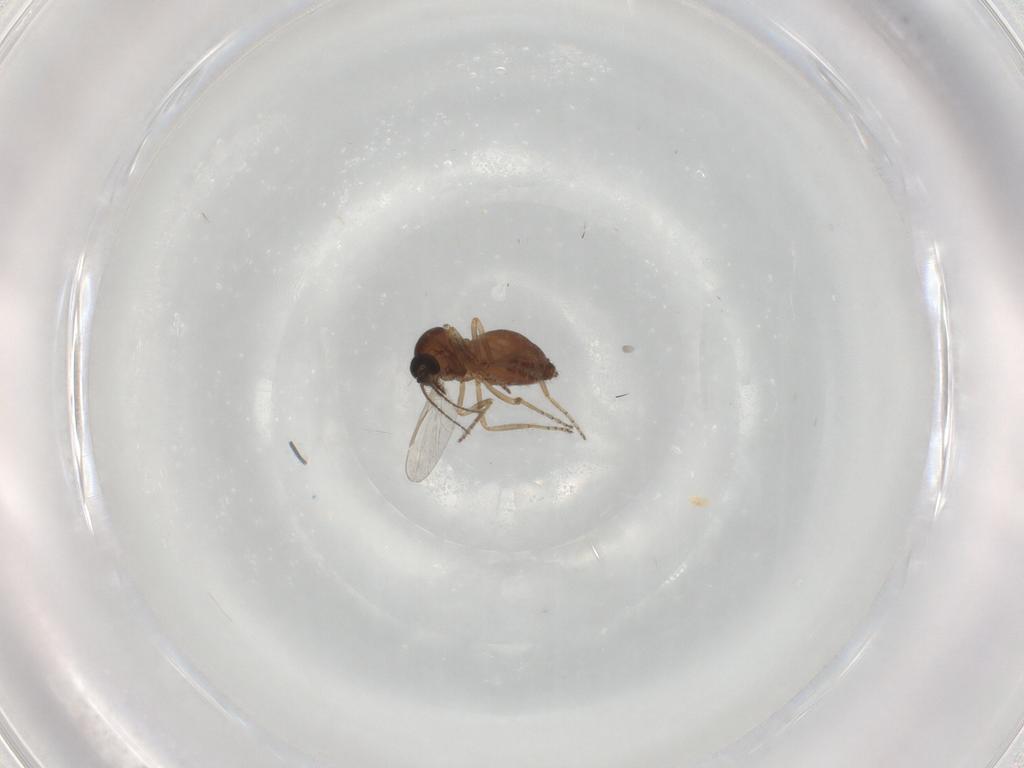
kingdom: Animalia
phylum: Arthropoda
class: Insecta
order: Diptera
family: Ceratopogonidae
